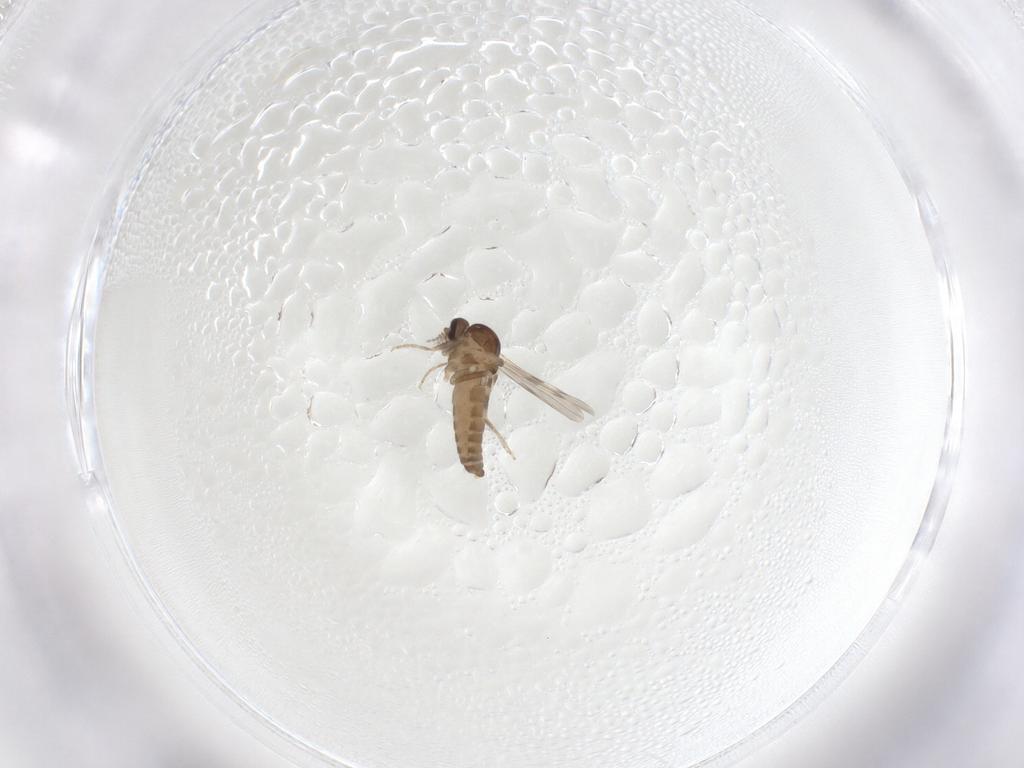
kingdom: Animalia
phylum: Arthropoda
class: Insecta
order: Diptera
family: Ceratopogonidae
